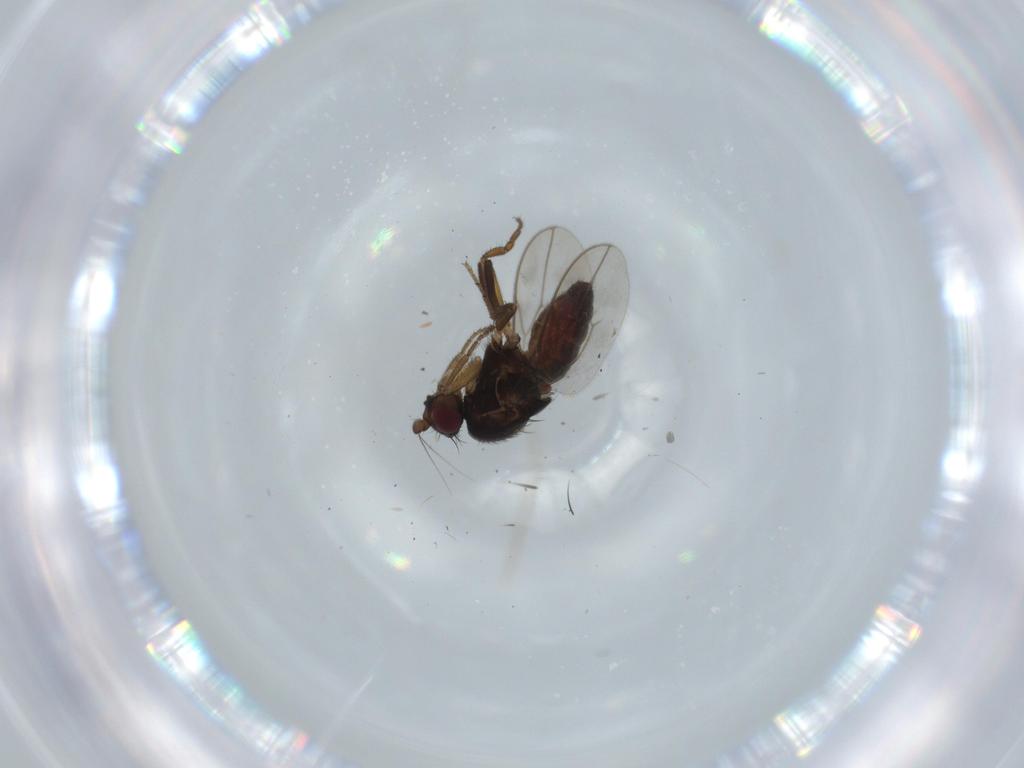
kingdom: Animalia
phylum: Arthropoda
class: Insecta
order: Diptera
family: Sphaeroceridae
